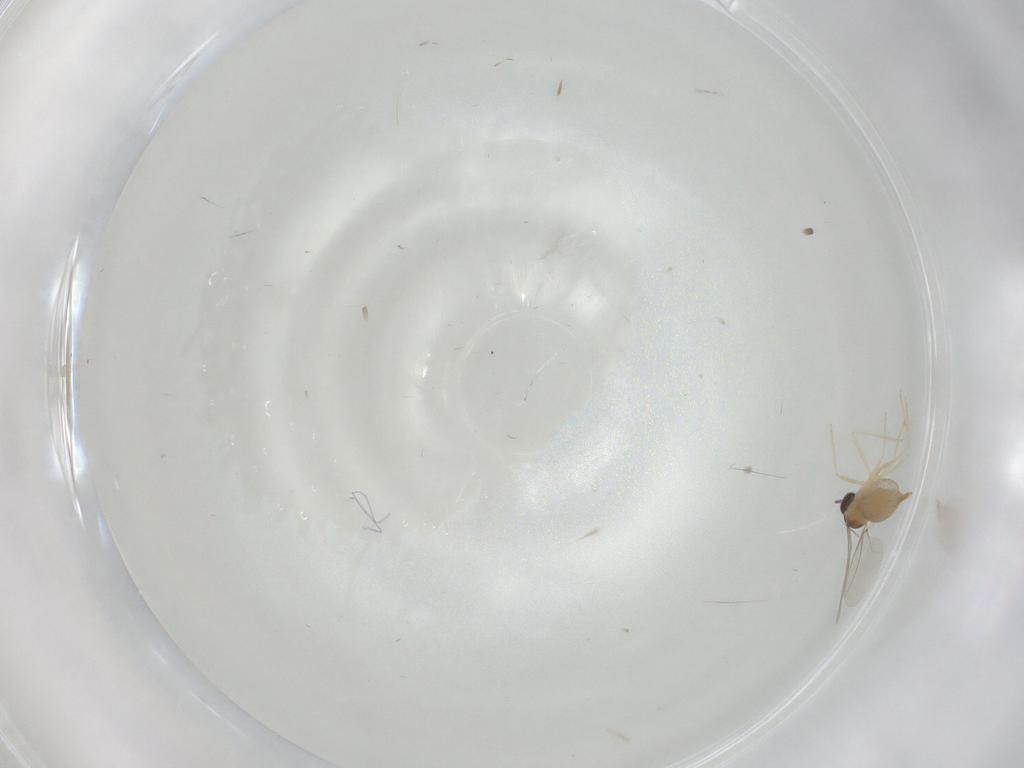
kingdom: Animalia
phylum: Arthropoda
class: Insecta
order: Diptera
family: Cecidomyiidae
